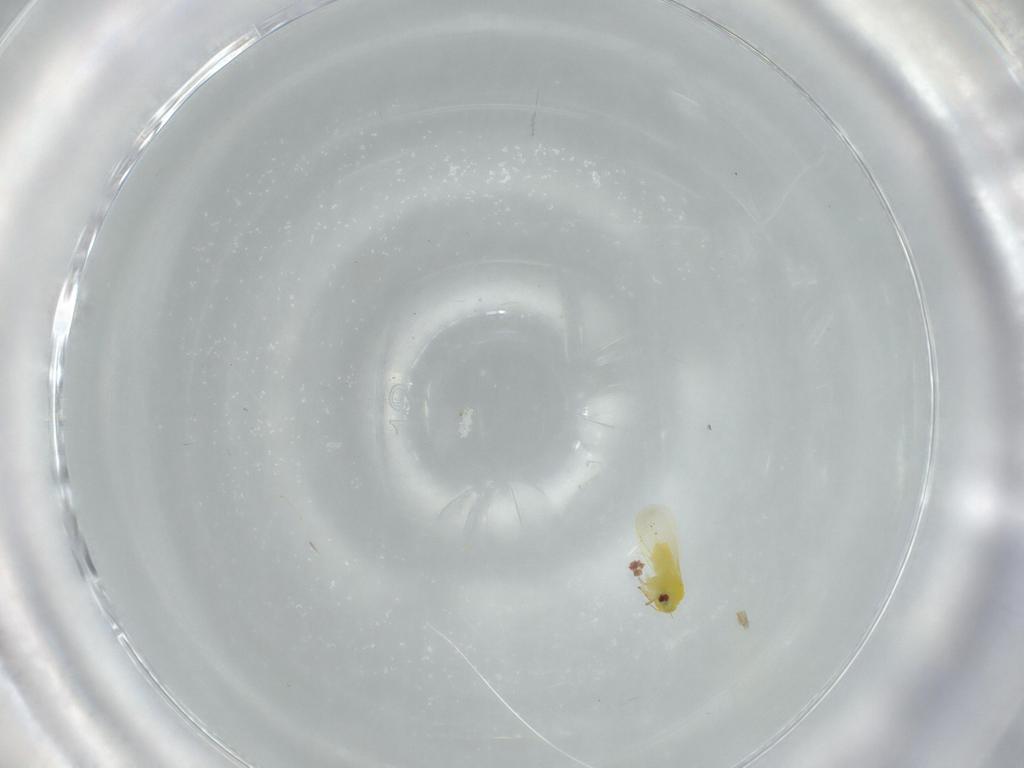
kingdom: Animalia
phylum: Arthropoda
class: Insecta
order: Hemiptera
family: Aleyrodidae
